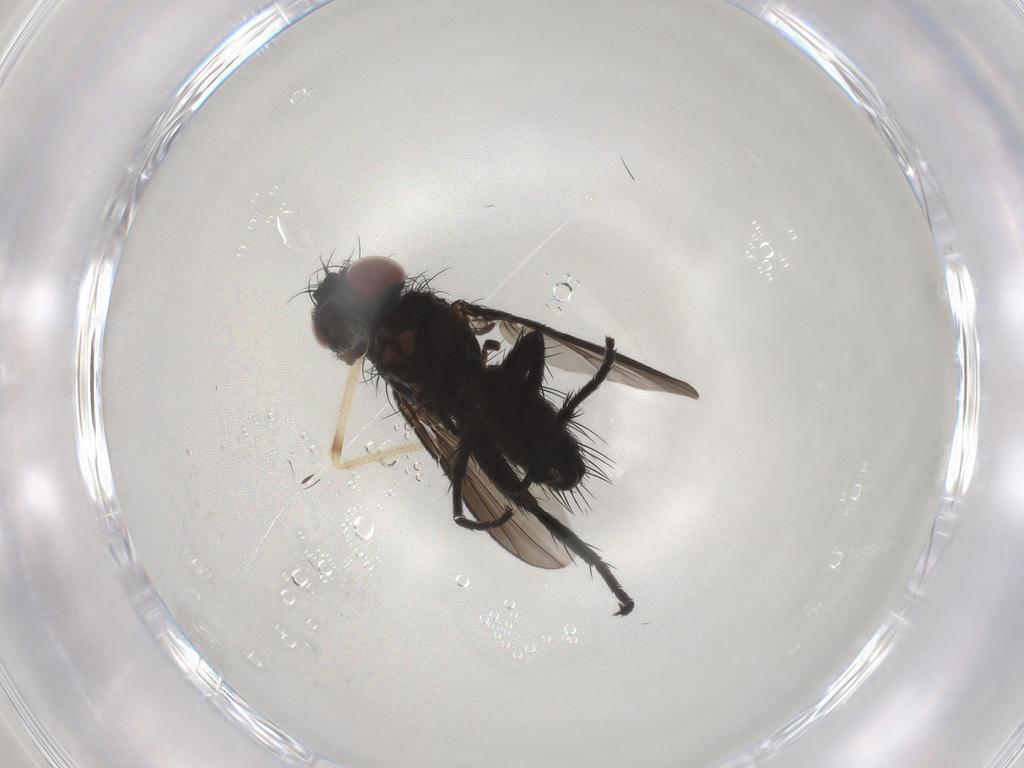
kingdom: Animalia
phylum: Arthropoda
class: Insecta
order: Diptera
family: Tachinidae
